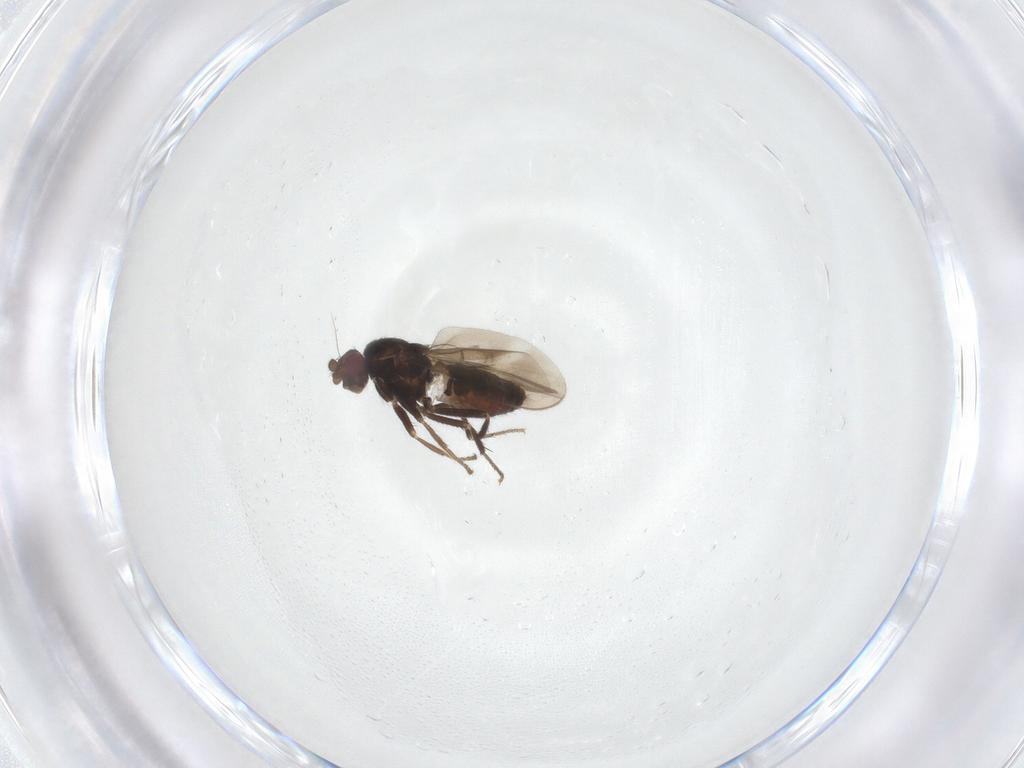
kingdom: Animalia
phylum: Arthropoda
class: Insecta
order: Diptera
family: Sphaeroceridae
